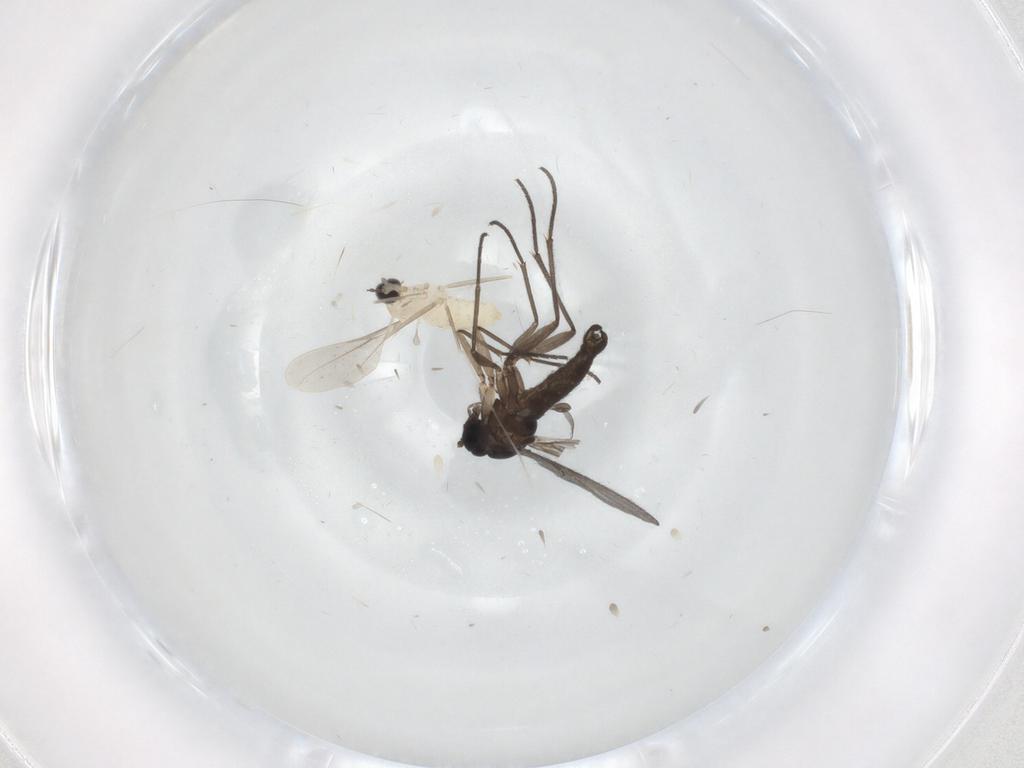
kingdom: Animalia
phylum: Arthropoda
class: Insecta
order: Diptera
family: Cecidomyiidae
